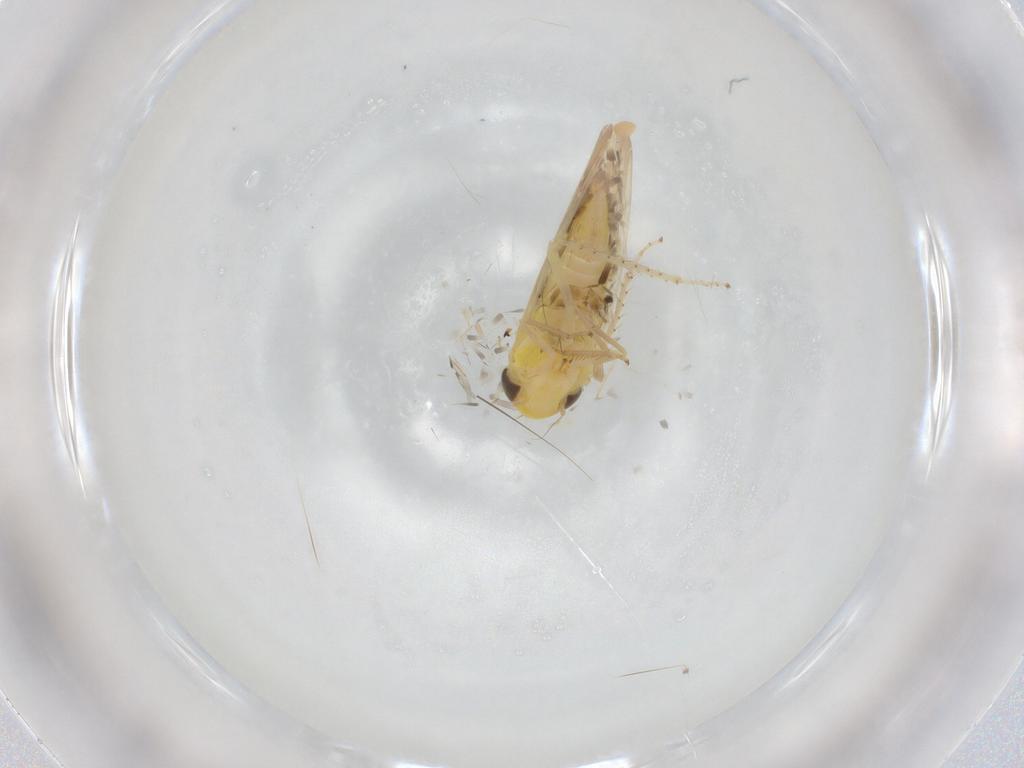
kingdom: Animalia
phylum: Arthropoda
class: Insecta
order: Hemiptera
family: Cicadellidae
